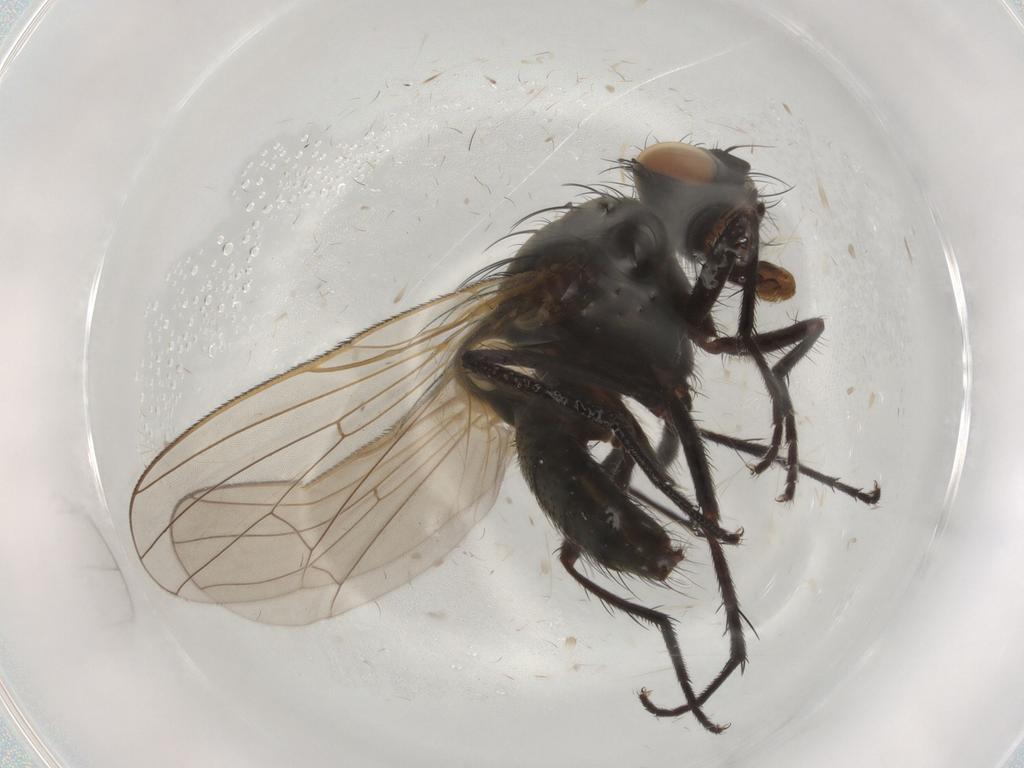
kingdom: Animalia
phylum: Arthropoda
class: Insecta
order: Diptera
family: Anthomyiidae
